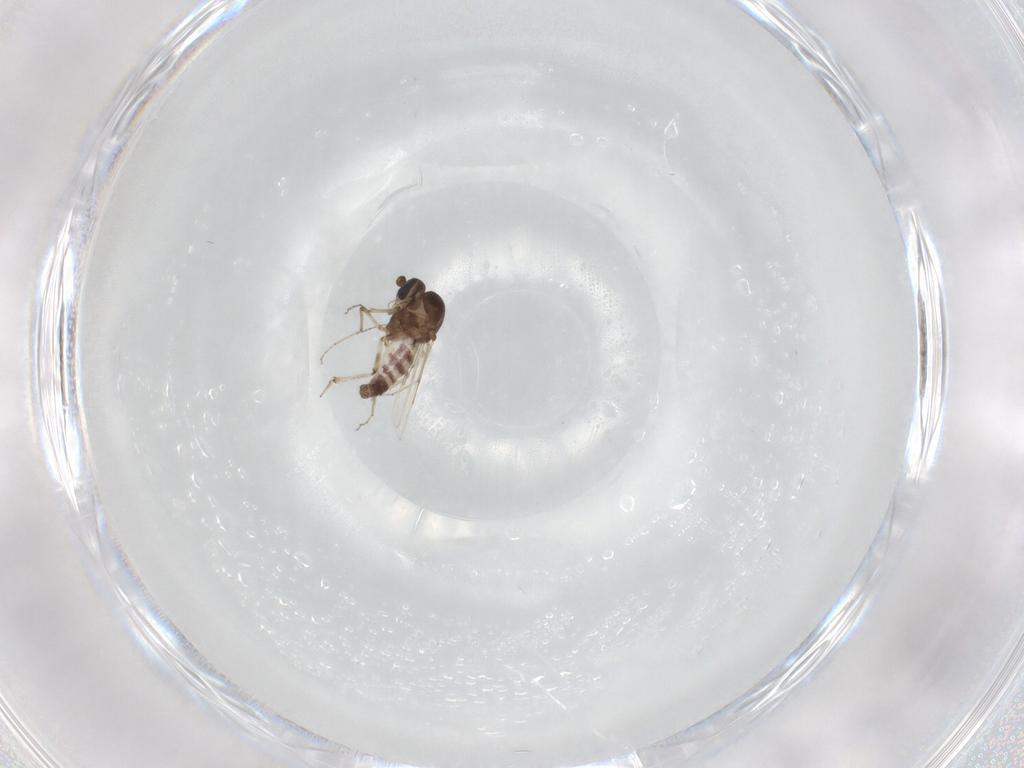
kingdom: Animalia
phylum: Arthropoda
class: Insecta
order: Diptera
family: Ceratopogonidae
